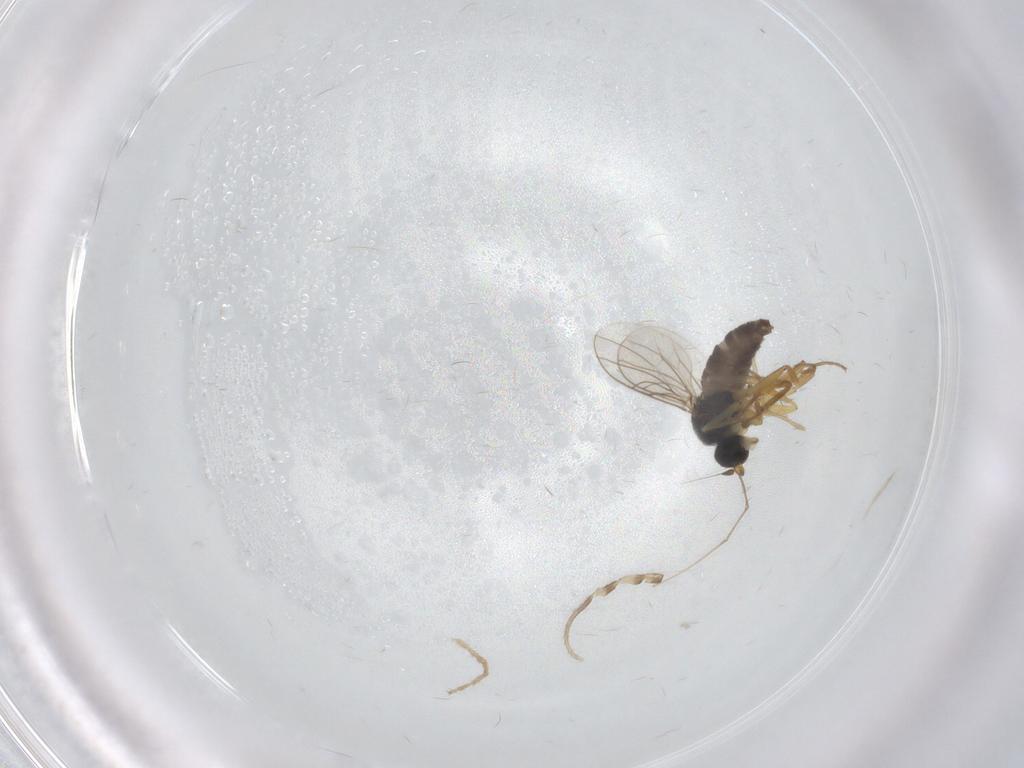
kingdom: Animalia
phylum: Arthropoda
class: Insecta
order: Diptera
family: Hybotidae
